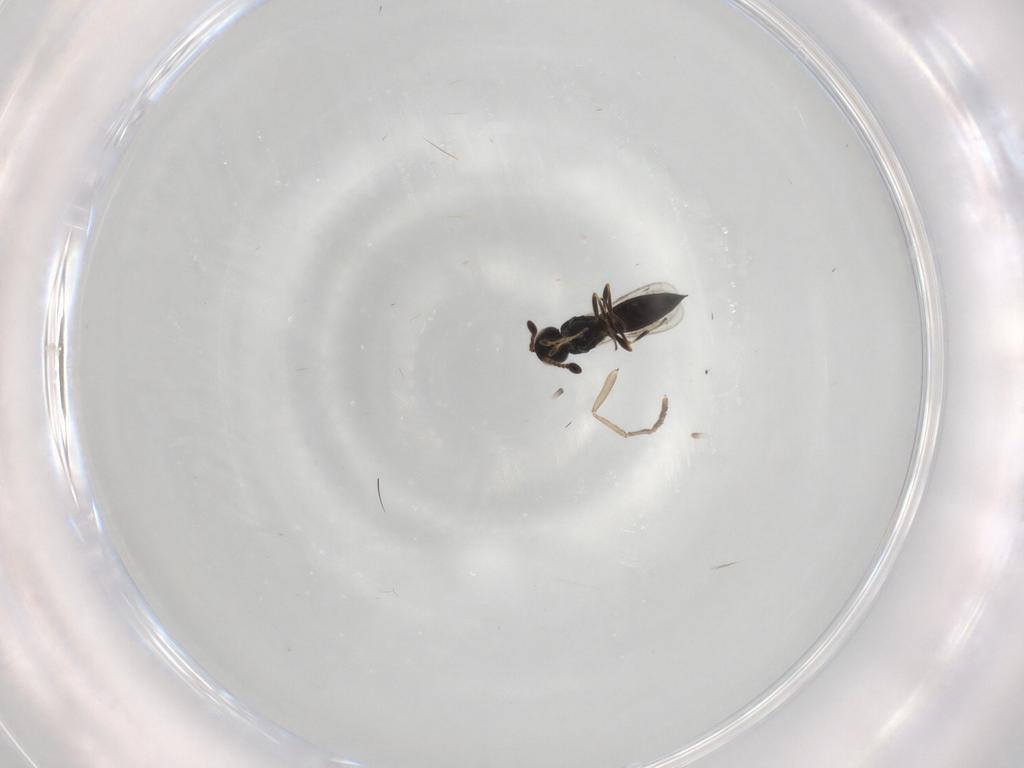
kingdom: Animalia
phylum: Arthropoda
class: Insecta
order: Hymenoptera
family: Scelionidae
